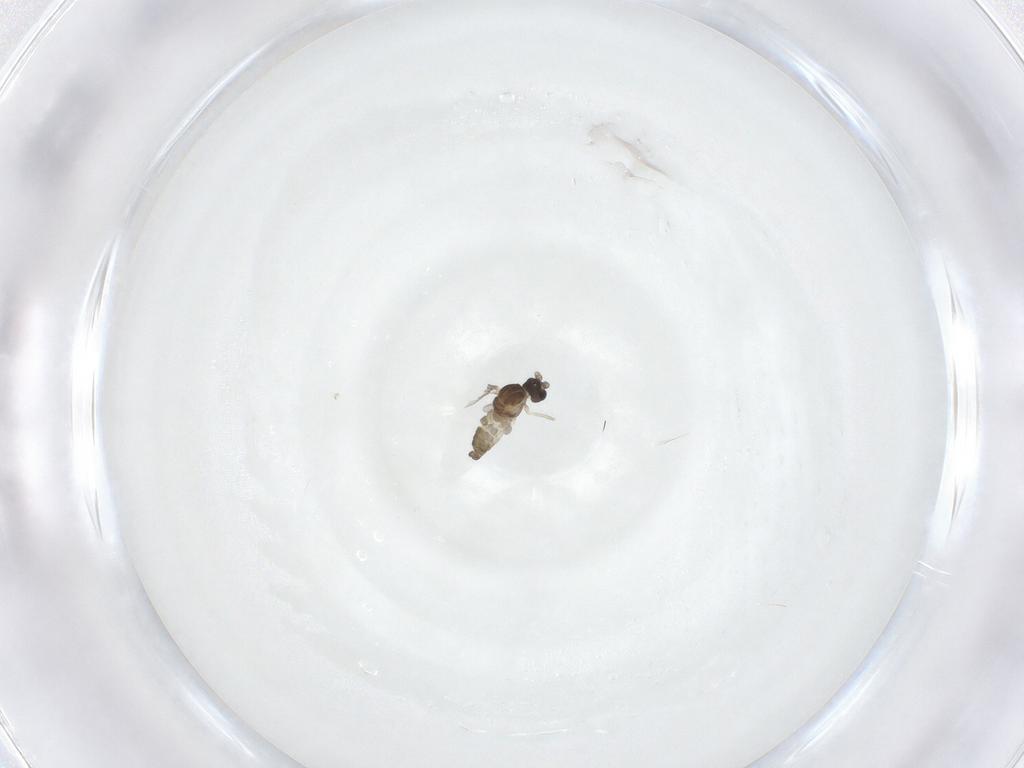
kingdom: Animalia
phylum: Arthropoda
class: Insecta
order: Diptera
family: Cecidomyiidae
